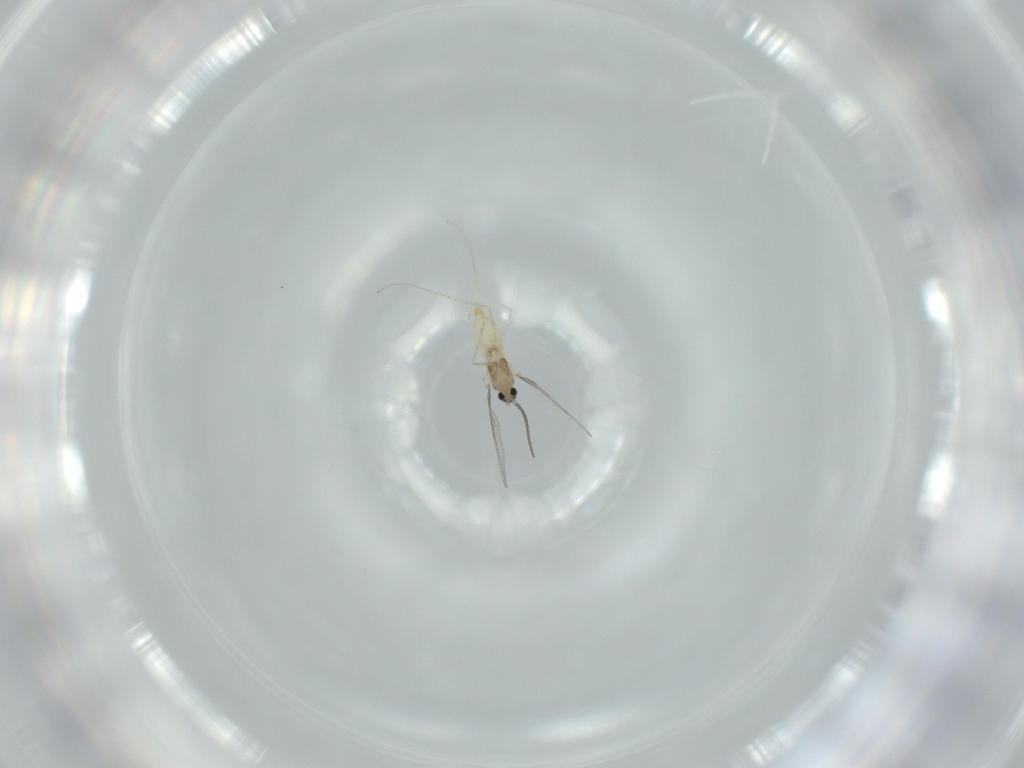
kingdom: Animalia
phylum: Arthropoda
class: Insecta
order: Diptera
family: Cecidomyiidae
